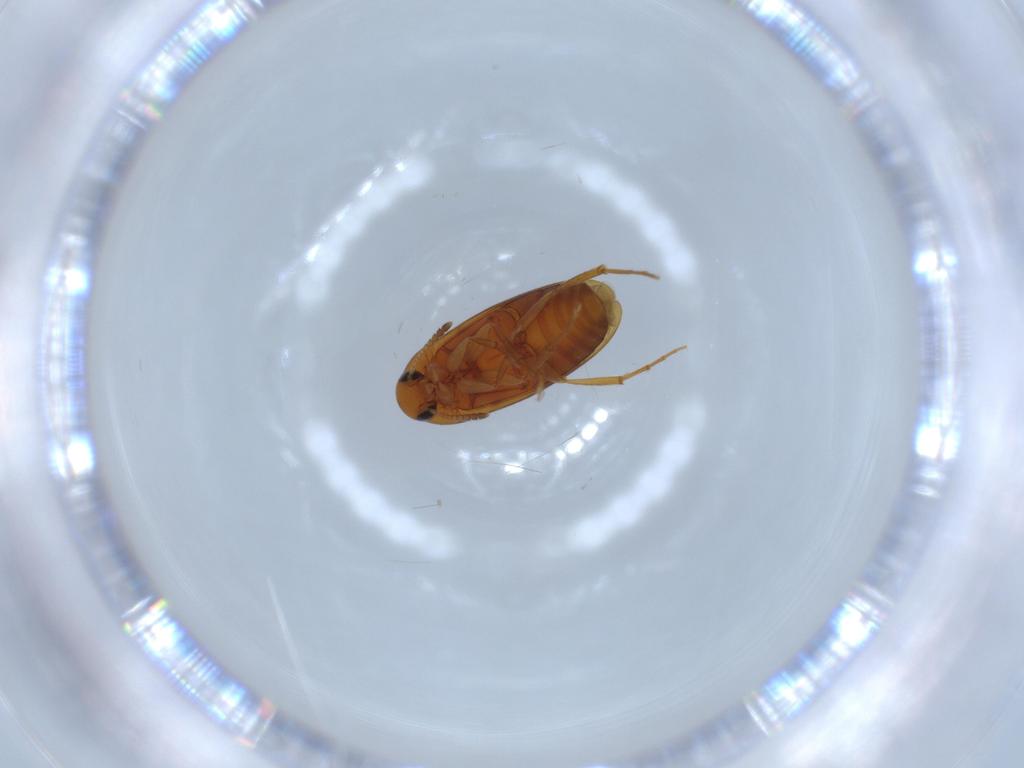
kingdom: Animalia
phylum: Arthropoda
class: Insecta
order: Coleoptera
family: Scraptiidae
